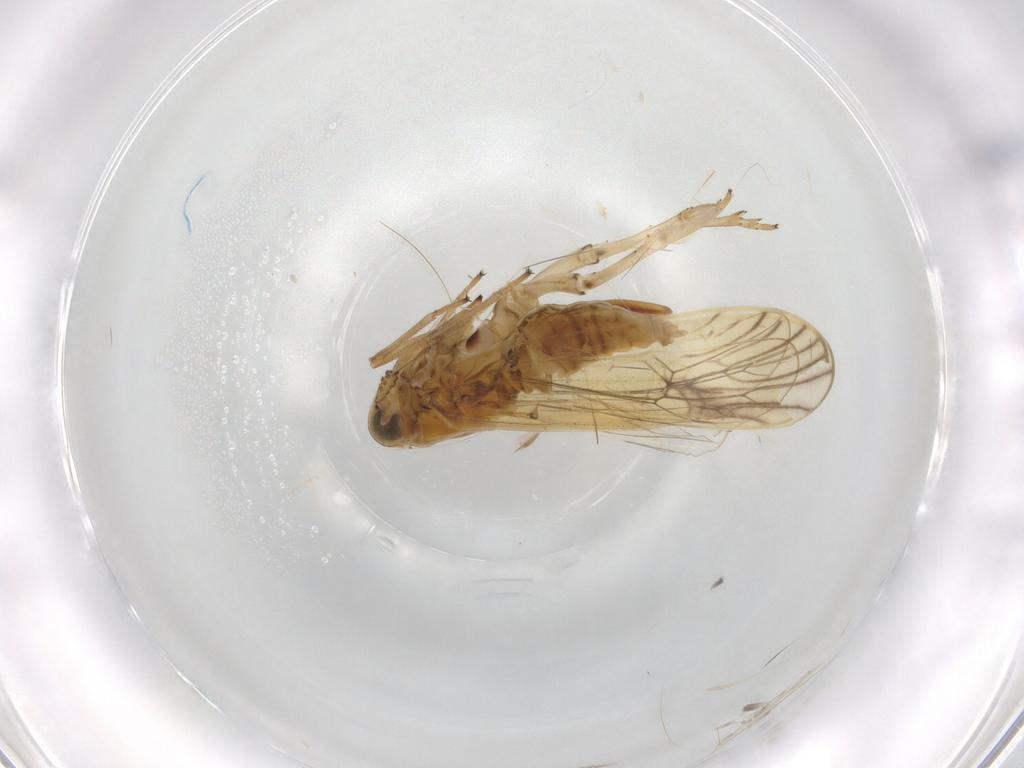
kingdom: Animalia
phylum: Arthropoda
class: Insecta
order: Hemiptera
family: Delphacidae
